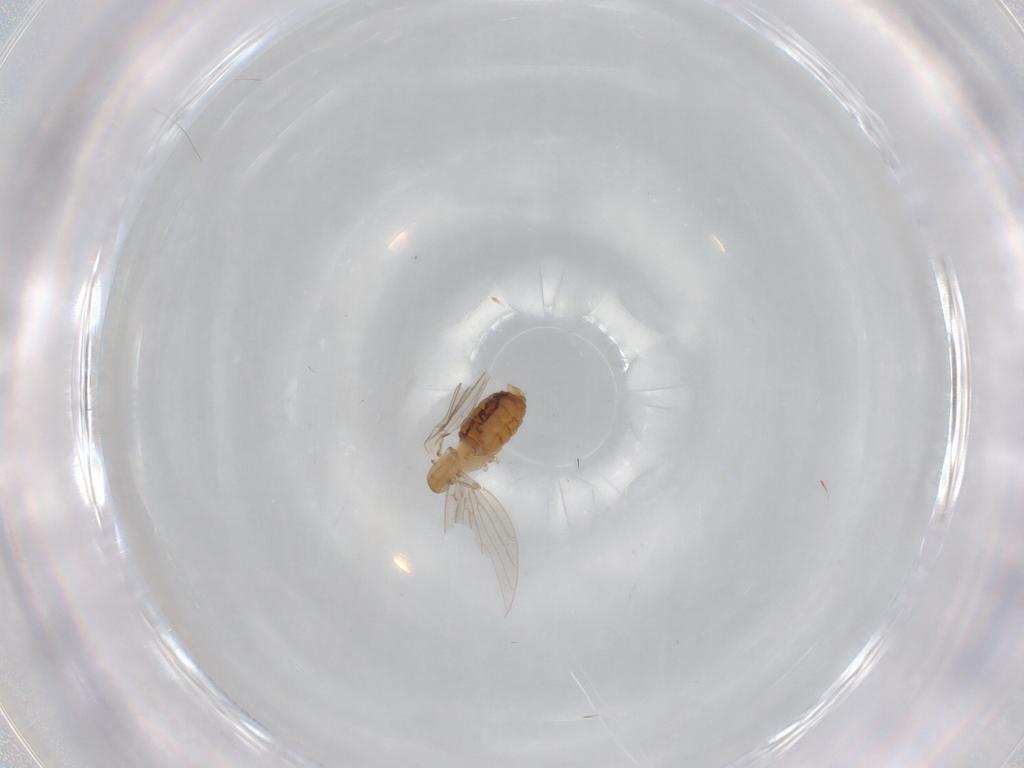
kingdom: Animalia
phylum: Arthropoda
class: Insecta
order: Diptera
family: Psychodidae
